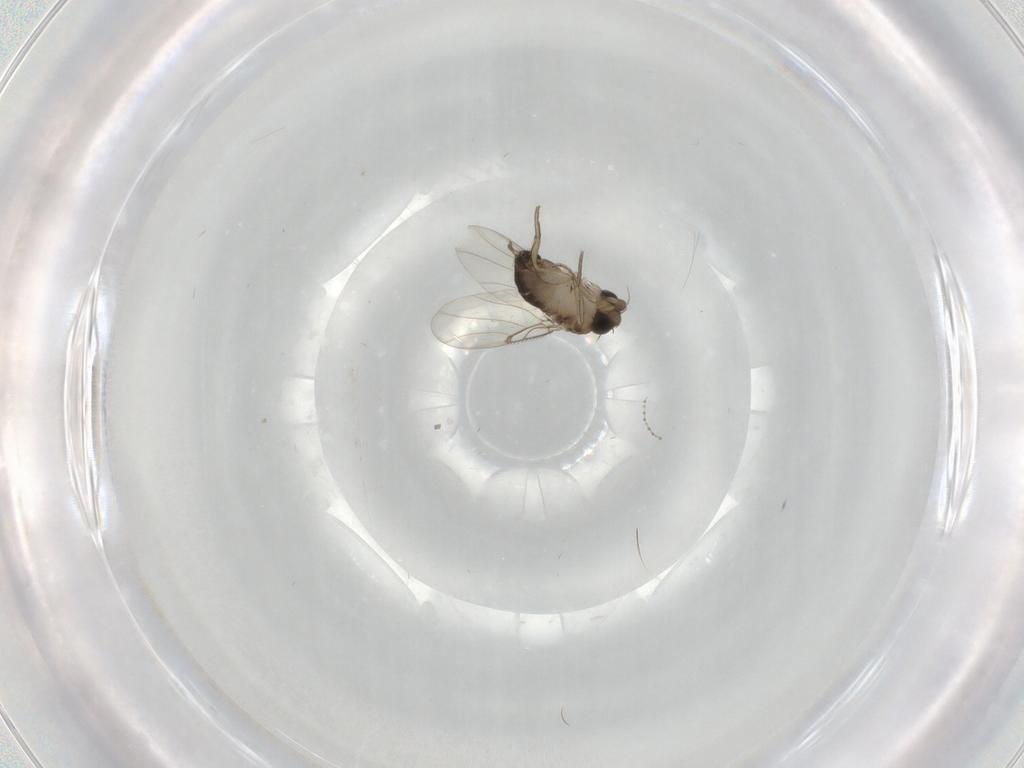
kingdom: Animalia
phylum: Arthropoda
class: Insecta
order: Diptera
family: Cecidomyiidae
